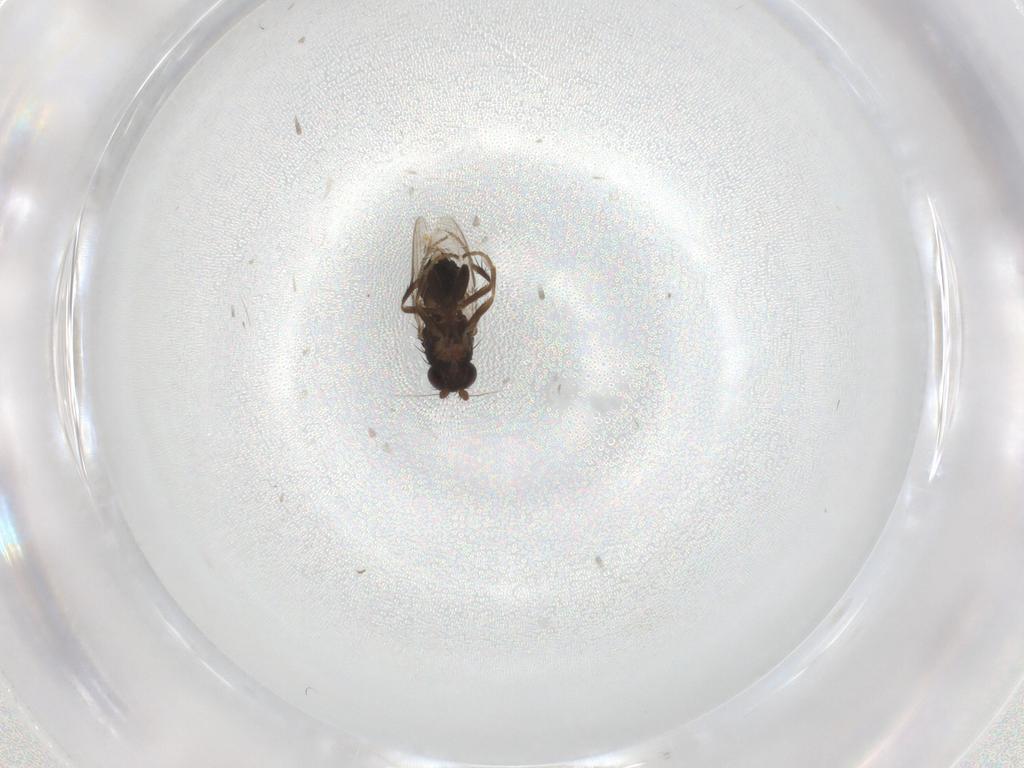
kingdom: Animalia
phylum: Arthropoda
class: Insecta
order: Diptera
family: Sphaeroceridae
